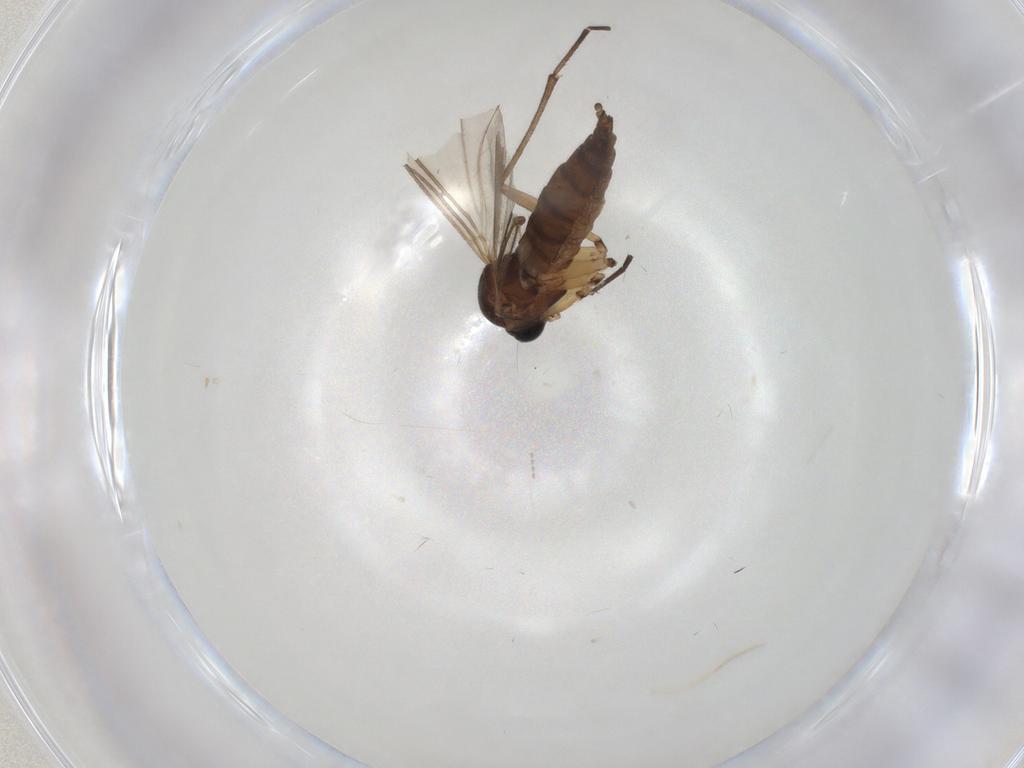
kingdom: Animalia
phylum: Arthropoda
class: Insecta
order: Diptera
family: Sciaridae
